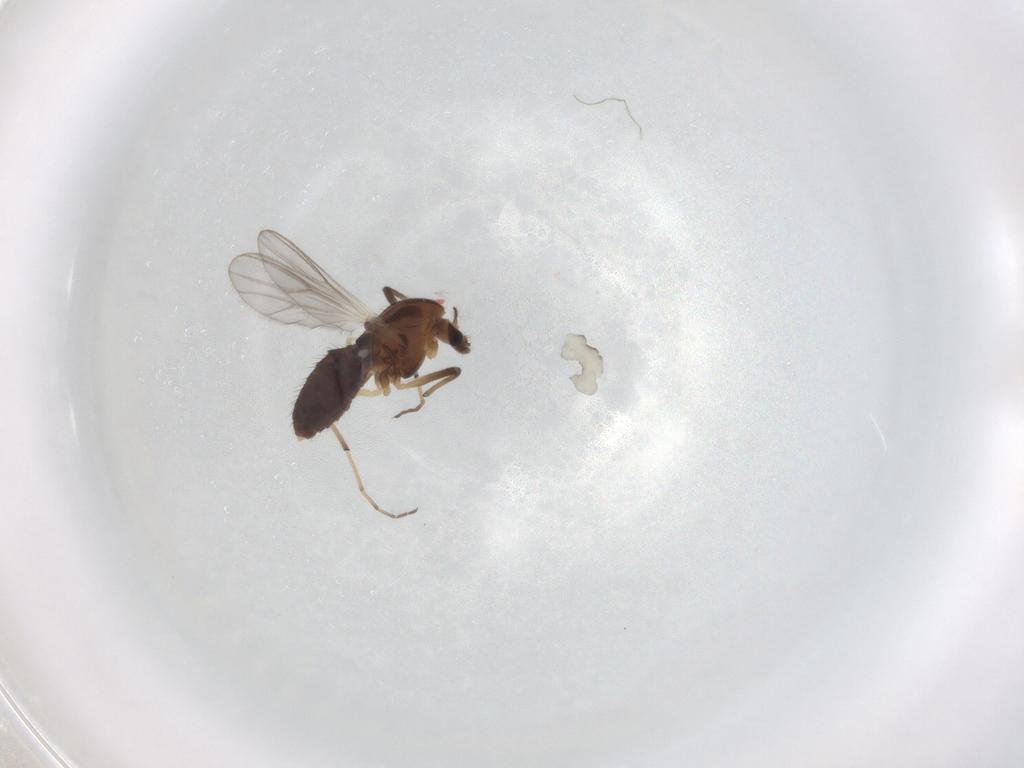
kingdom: Animalia
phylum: Arthropoda
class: Insecta
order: Diptera
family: Chironomidae
